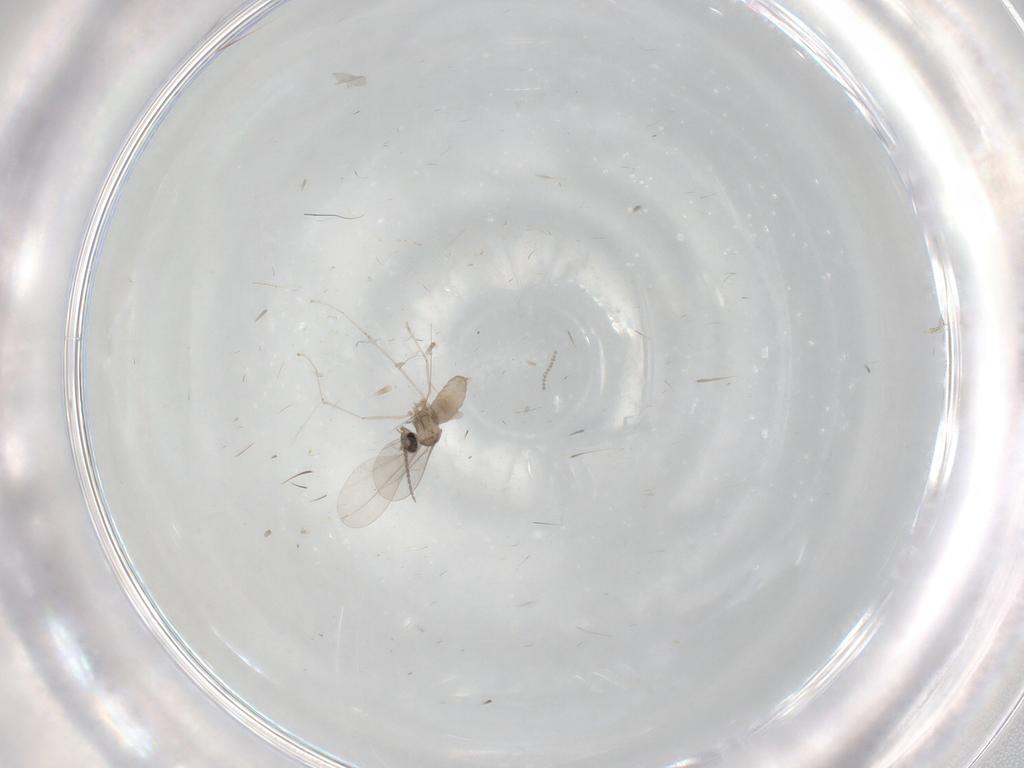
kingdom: Animalia
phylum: Arthropoda
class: Insecta
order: Diptera
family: Cecidomyiidae
